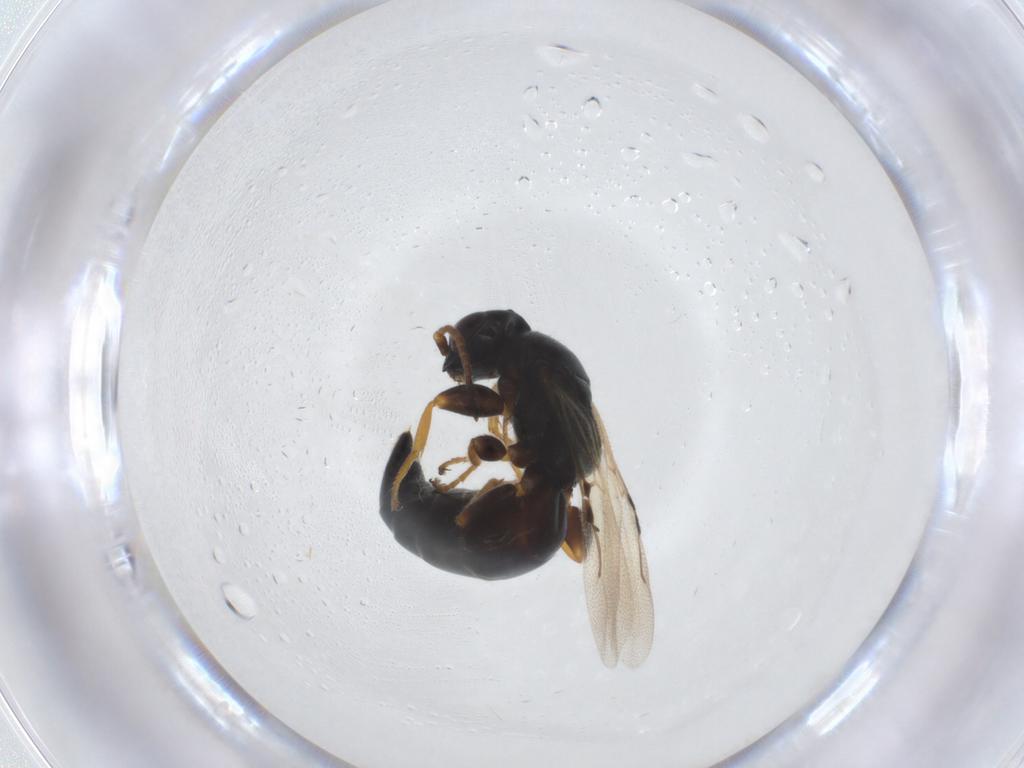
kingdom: Animalia
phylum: Arthropoda
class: Insecta
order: Hymenoptera
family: Bethylidae
